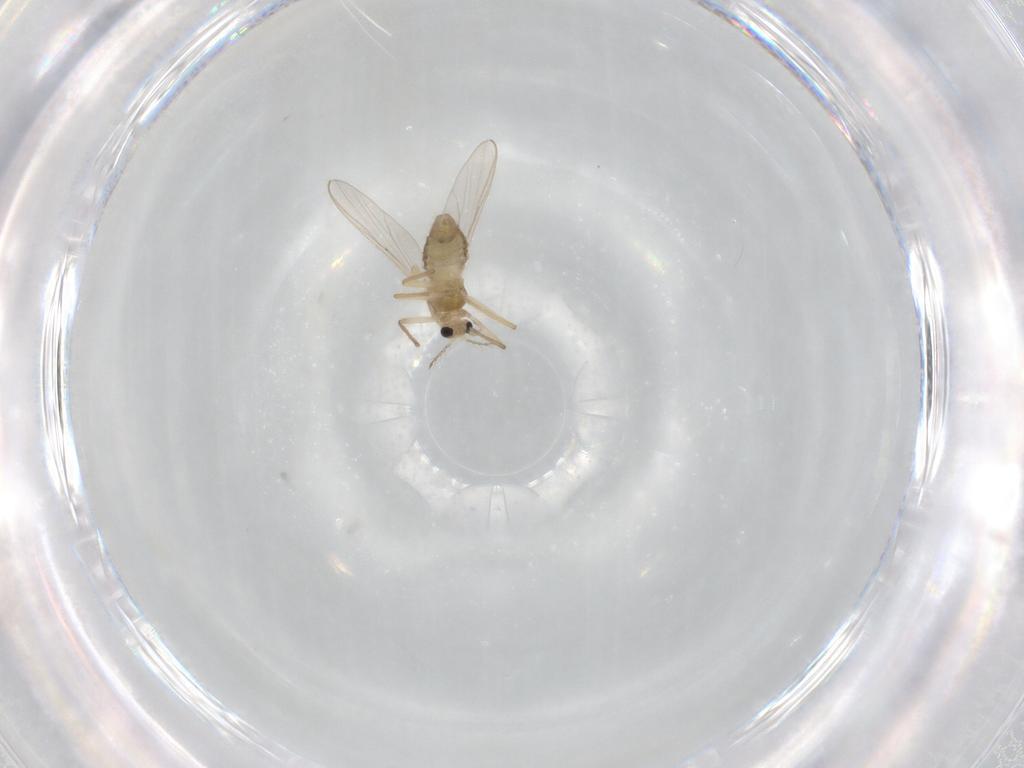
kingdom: Animalia
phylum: Arthropoda
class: Insecta
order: Diptera
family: Chironomidae
